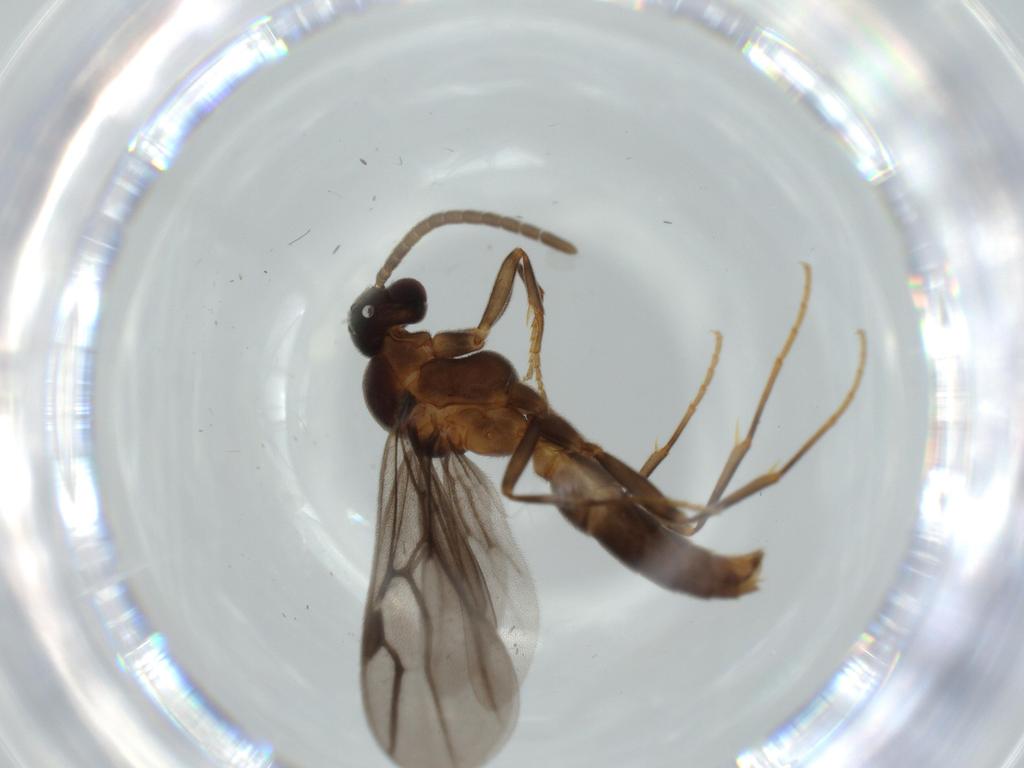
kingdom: Animalia
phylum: Arthropoda
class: Insecta
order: Hymenoptera
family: Formicidae
